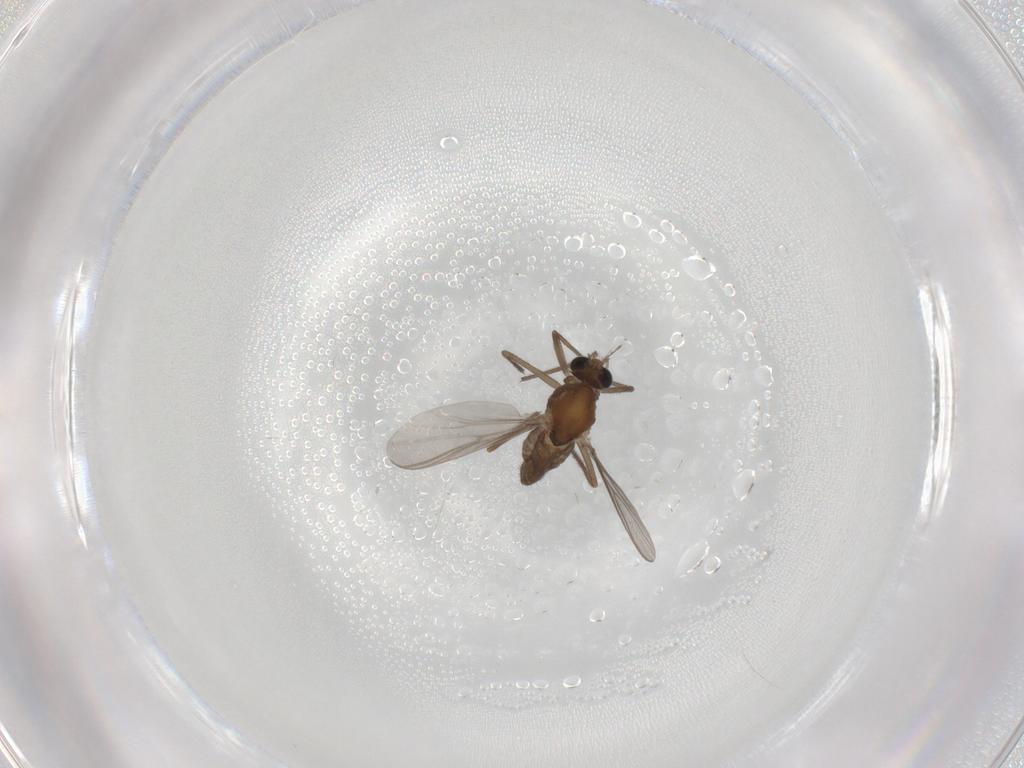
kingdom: Animalia
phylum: Arthropoda
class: Insecta
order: Diptera
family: Chironomidae
